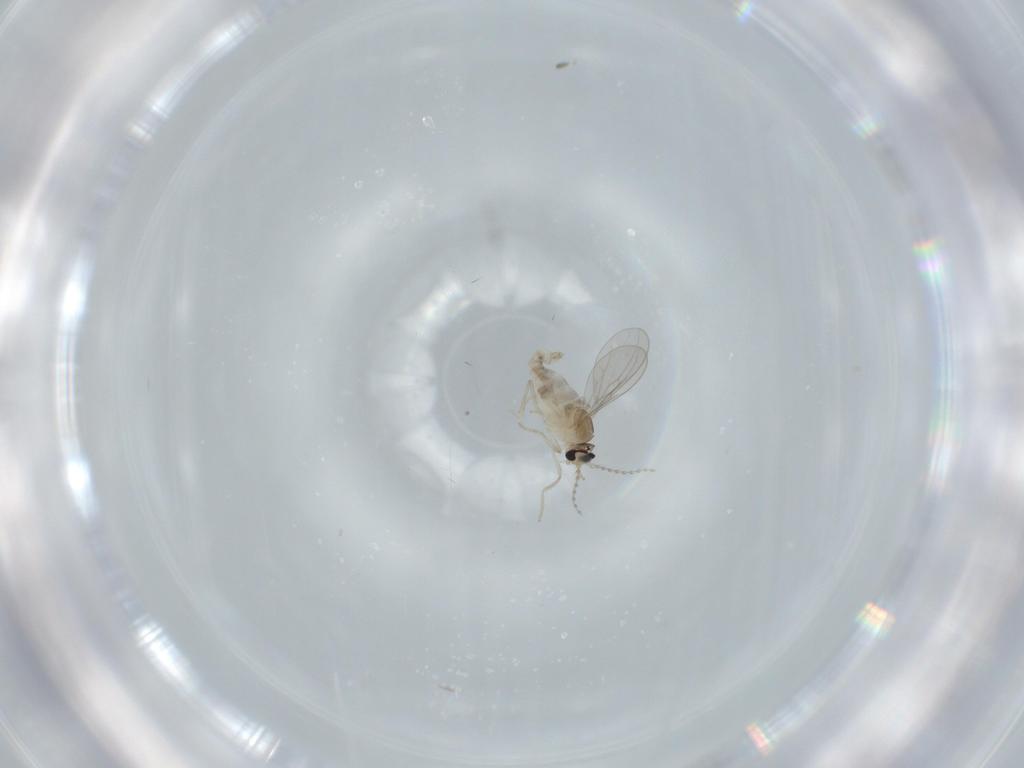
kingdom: Animalia
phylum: Arthropoda
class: Insecta
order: Diptera
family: Cecidomyiidae
